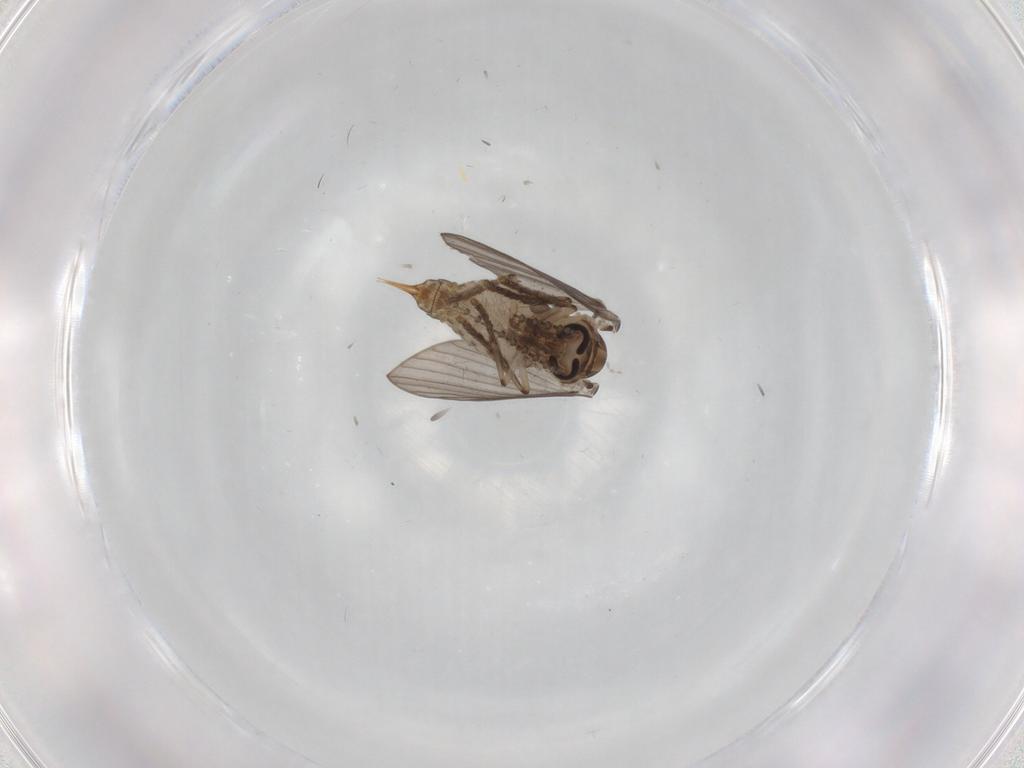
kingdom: Animalia
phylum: Arthropoda
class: Insecta
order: Diptera
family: Psychodidae
